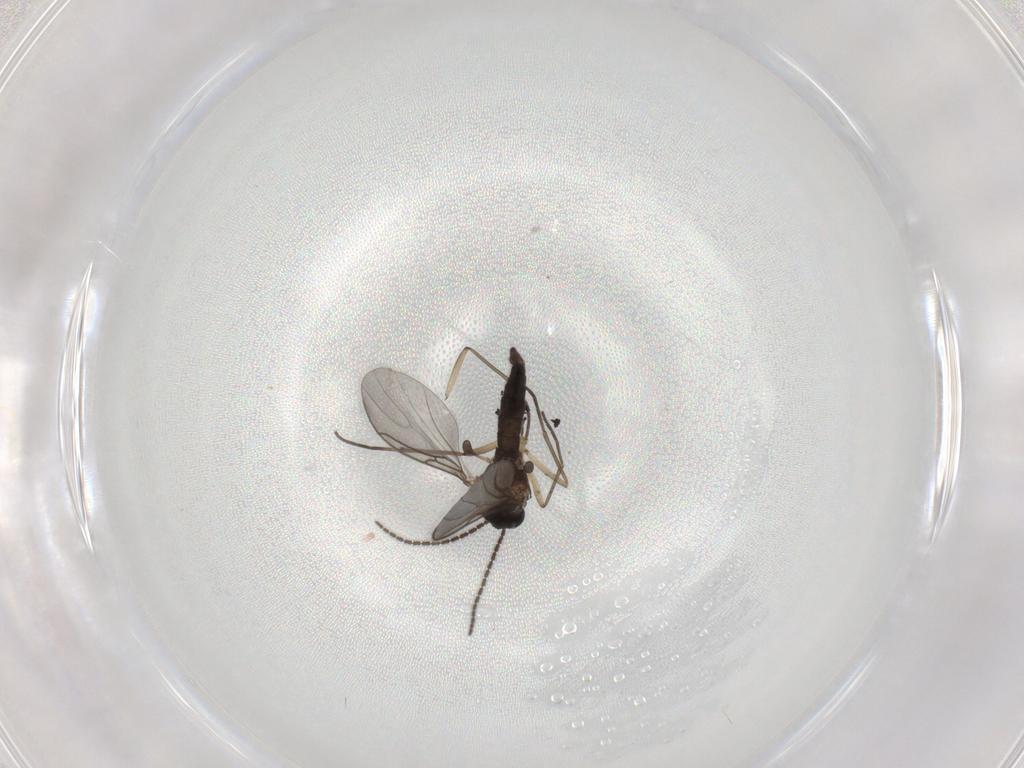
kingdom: Animalia
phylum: Arthropoda
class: Insecta
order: Diptera
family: Sciaridae
